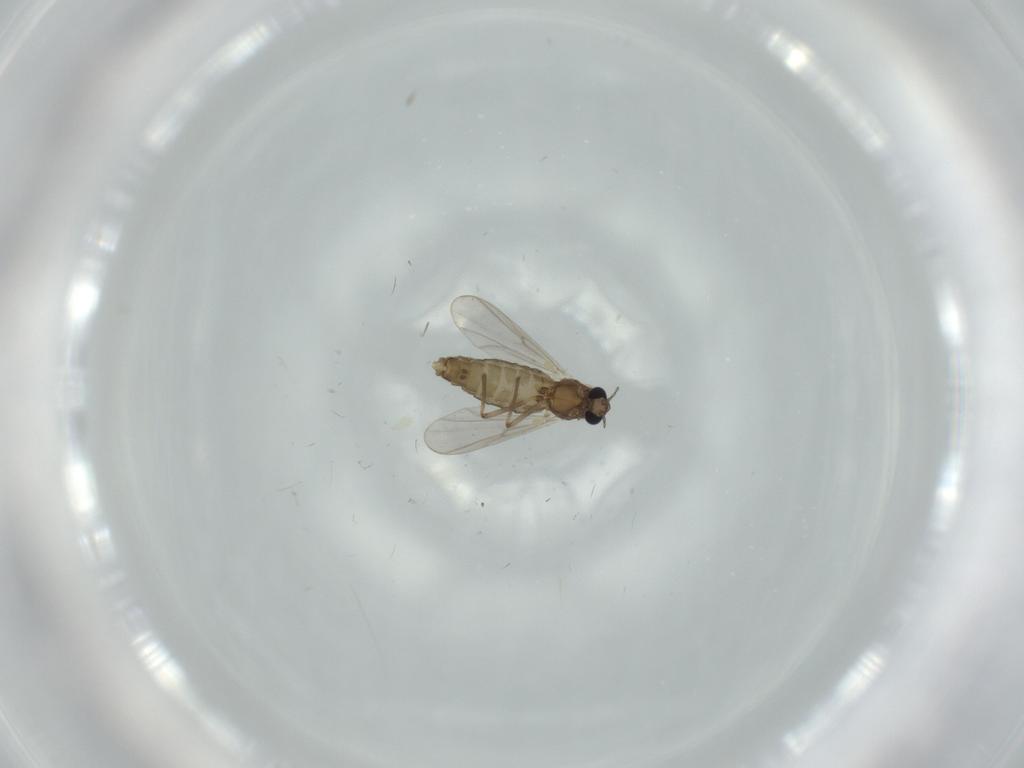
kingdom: Animalia
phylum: Arthropoda
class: Insecta
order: Diptera
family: Chironomidae
